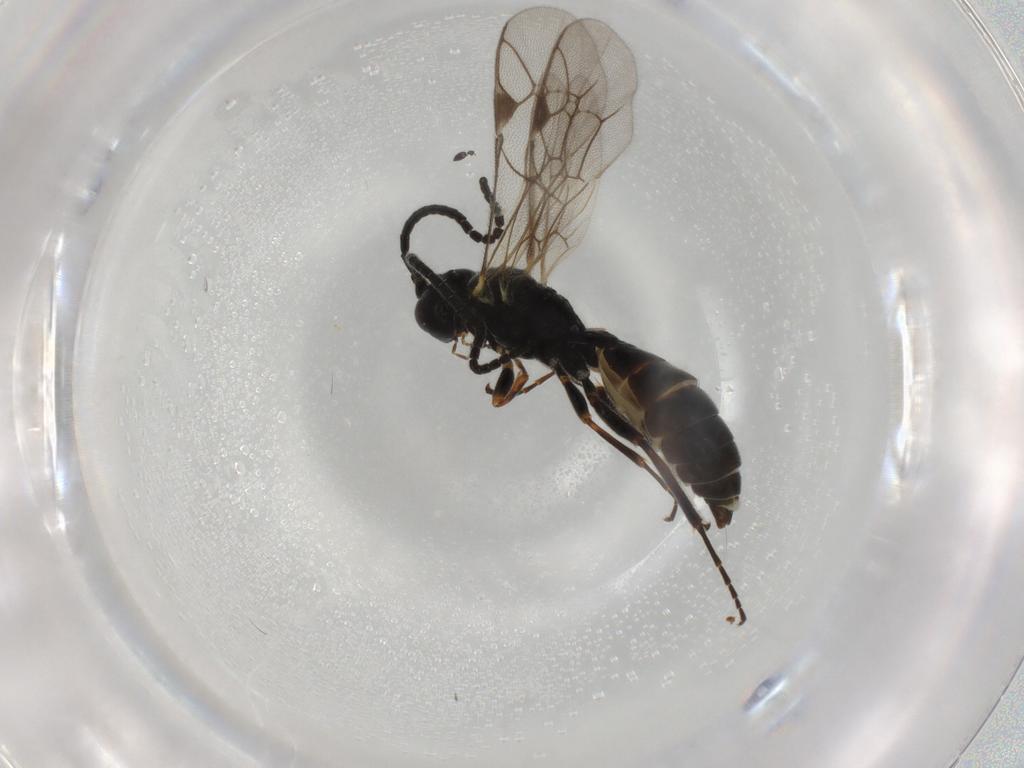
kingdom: Animalia
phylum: Arthropoda
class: Insecta
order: Hymenoptera
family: Ichneumonidae
